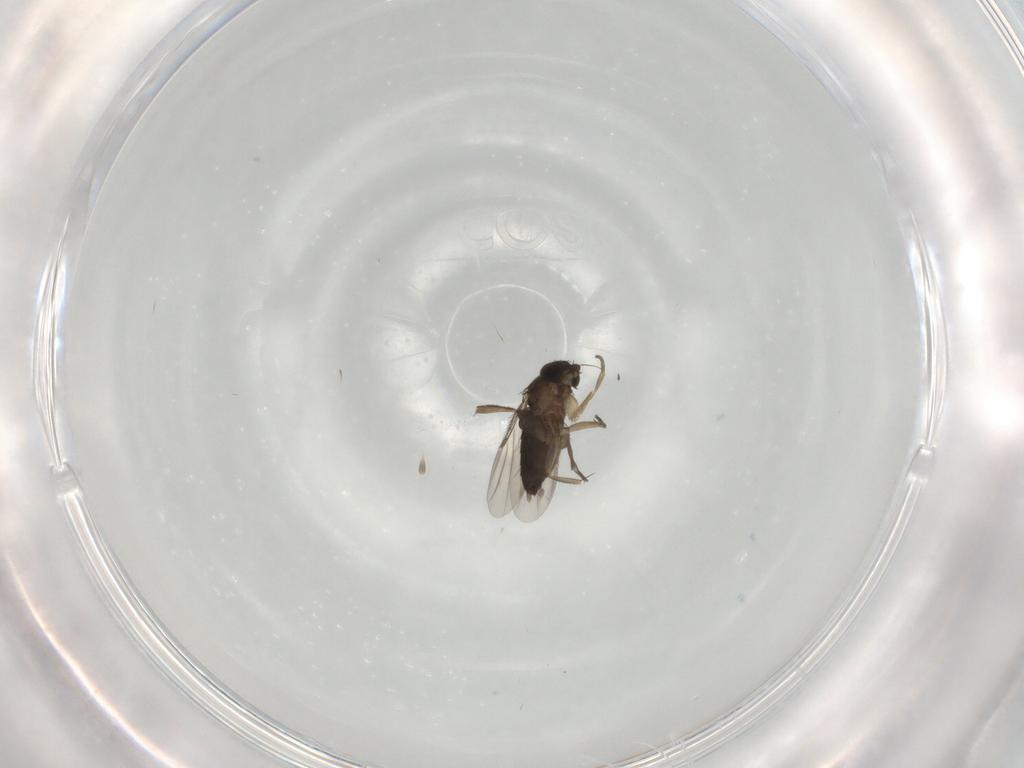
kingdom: Animalia
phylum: Arthropoda
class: Insecta
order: Diptera
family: Phoridae
